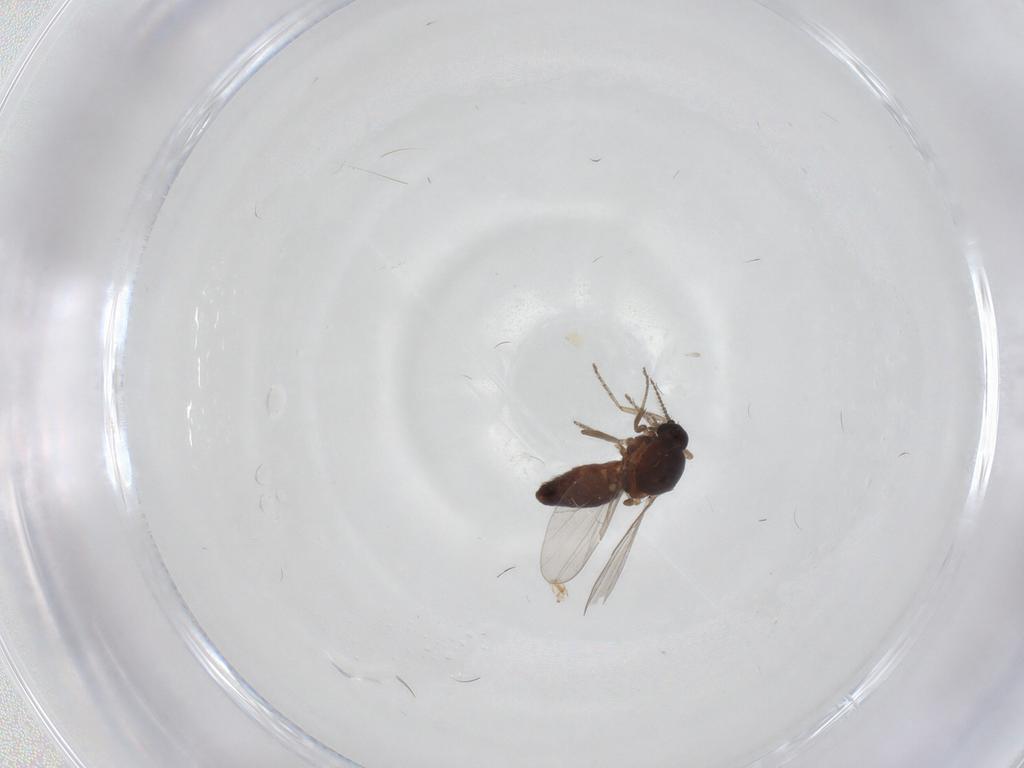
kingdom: Animalia
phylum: Arthropoda
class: Insecta
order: Diptera
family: Ceratopogonidae
